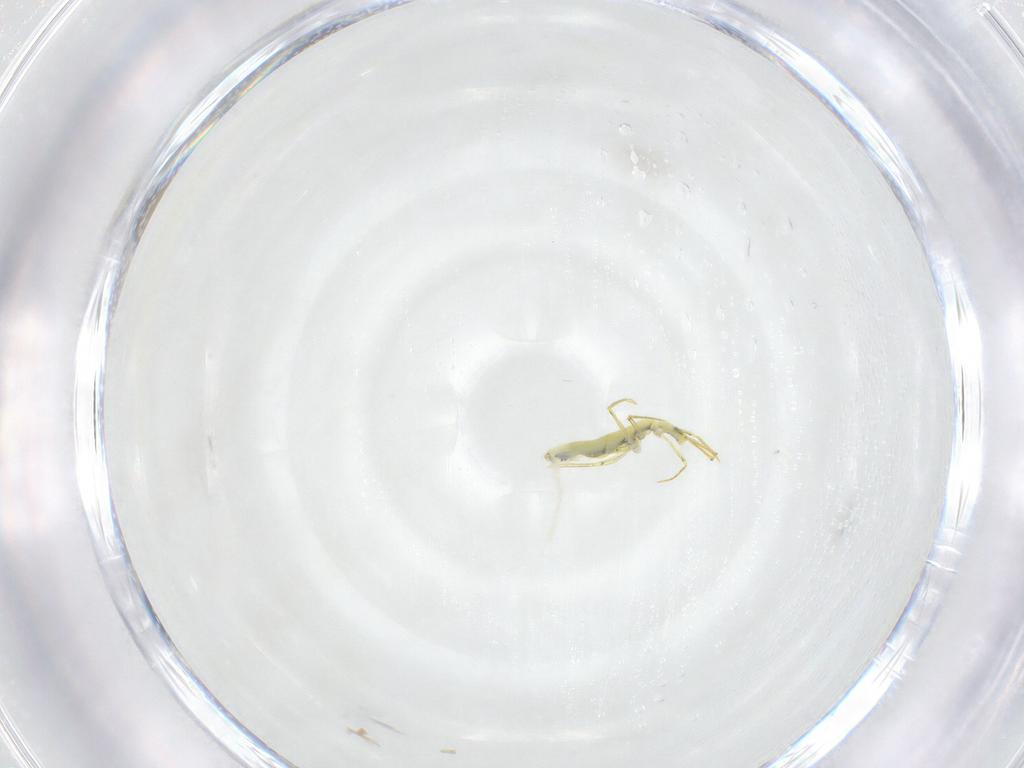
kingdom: Animalia
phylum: Arthropoda
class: Collembola
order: Entomobryomorpha
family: Entomobryidae
